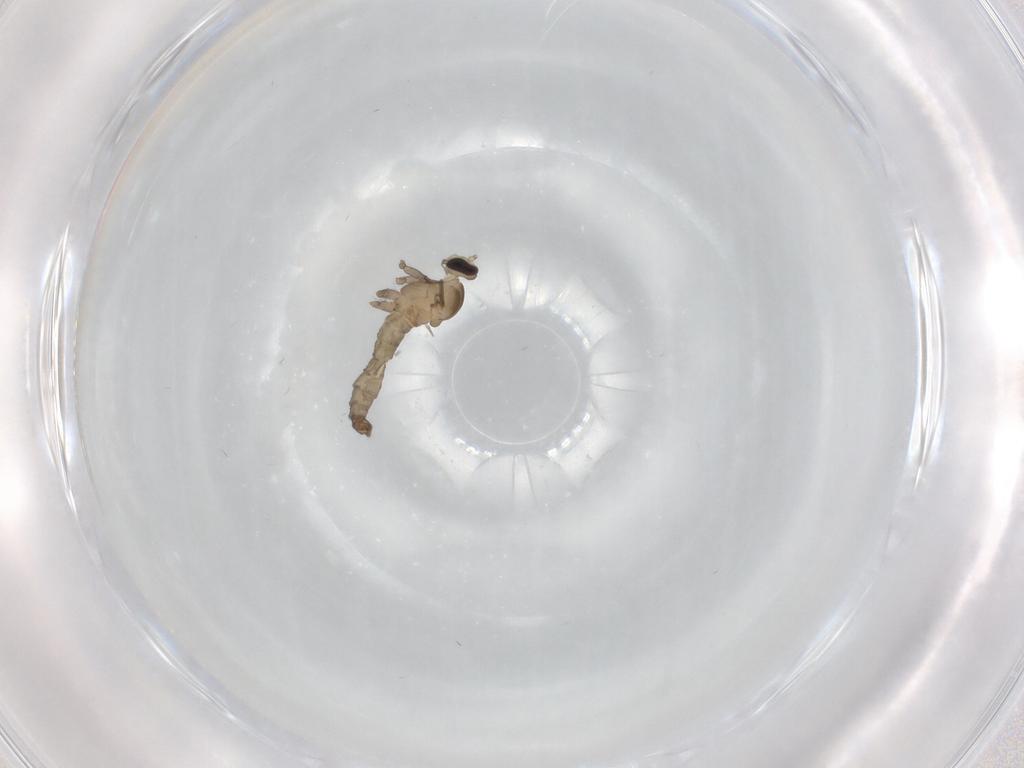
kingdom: Animalia
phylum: Arthropoda
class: Insecta
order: Diptera
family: Cecidomyiidae
